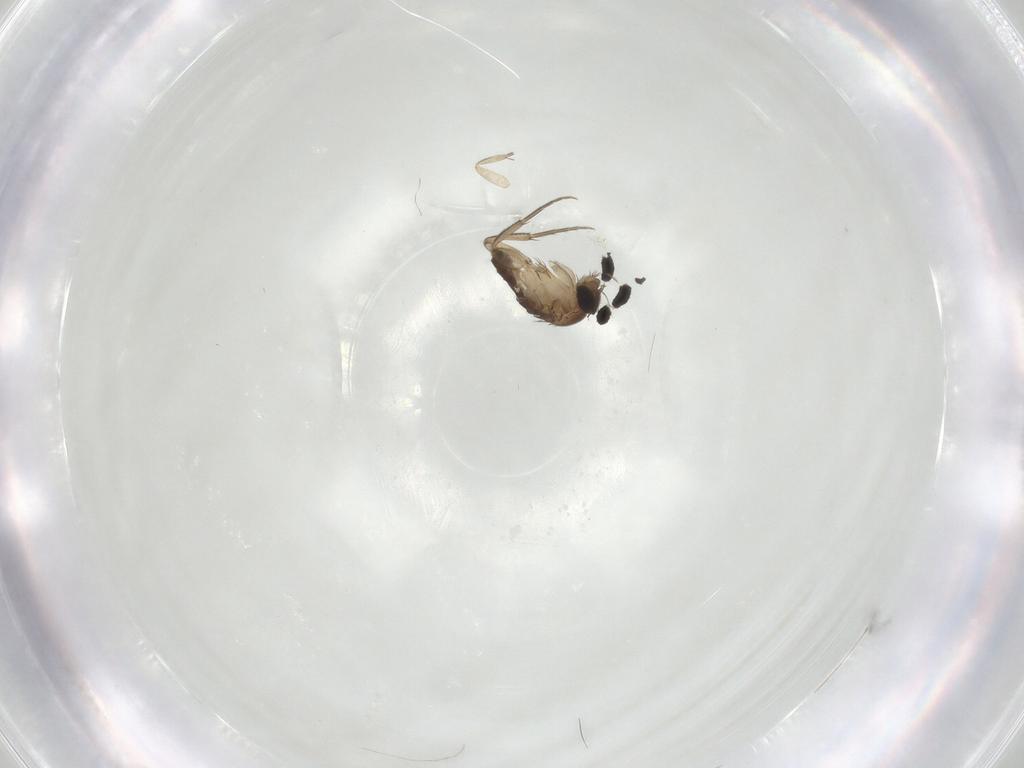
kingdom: Animalia
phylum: Arthropoda
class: Insecta
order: Diptera
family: Phoridae
